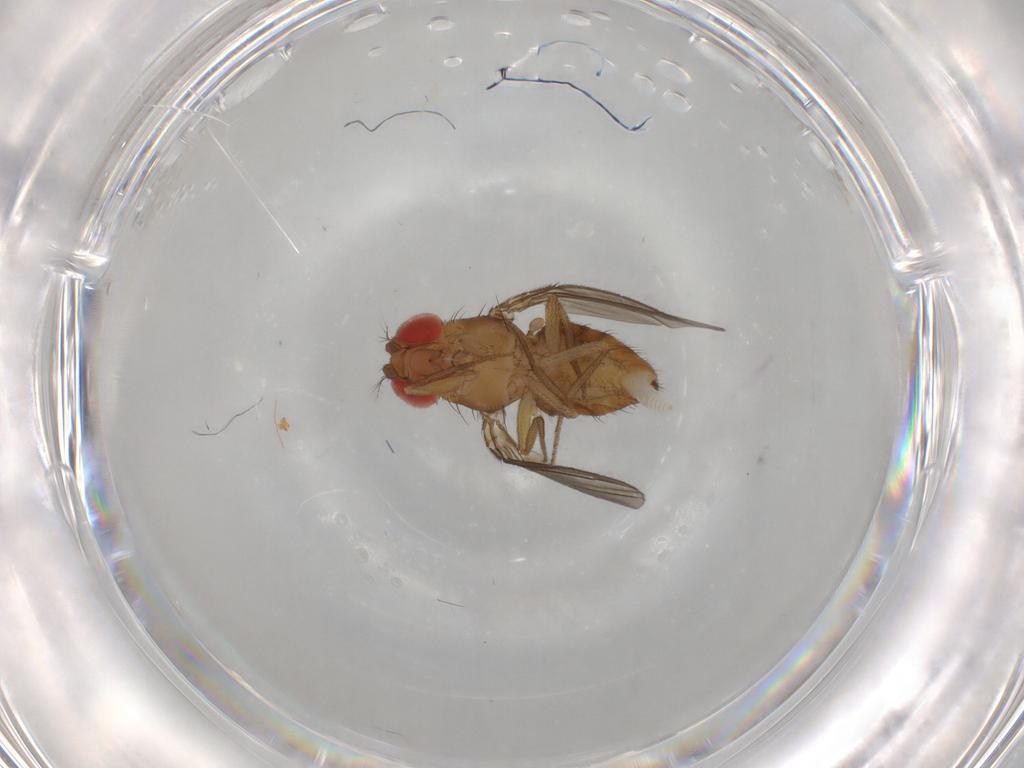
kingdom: Animalia
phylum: Arthropoda
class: Insecta
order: Diptera
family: Drosophilidae
